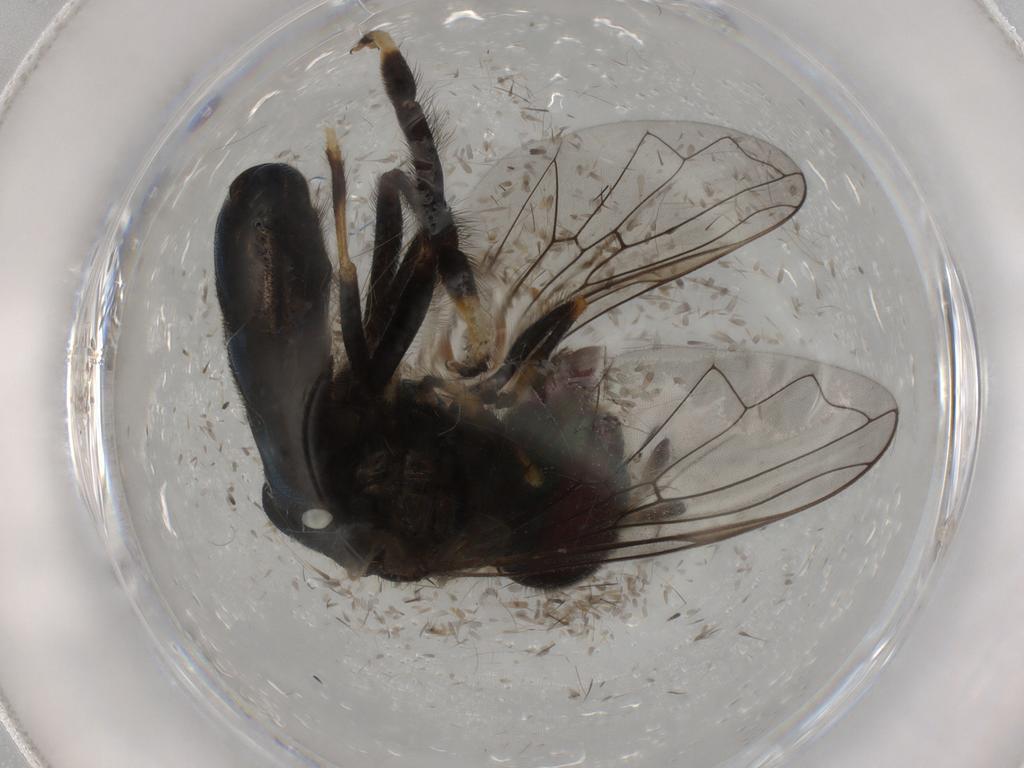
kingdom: Animalia
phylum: Arthropoda
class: Insecta
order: Diptera
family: Syrphidae
